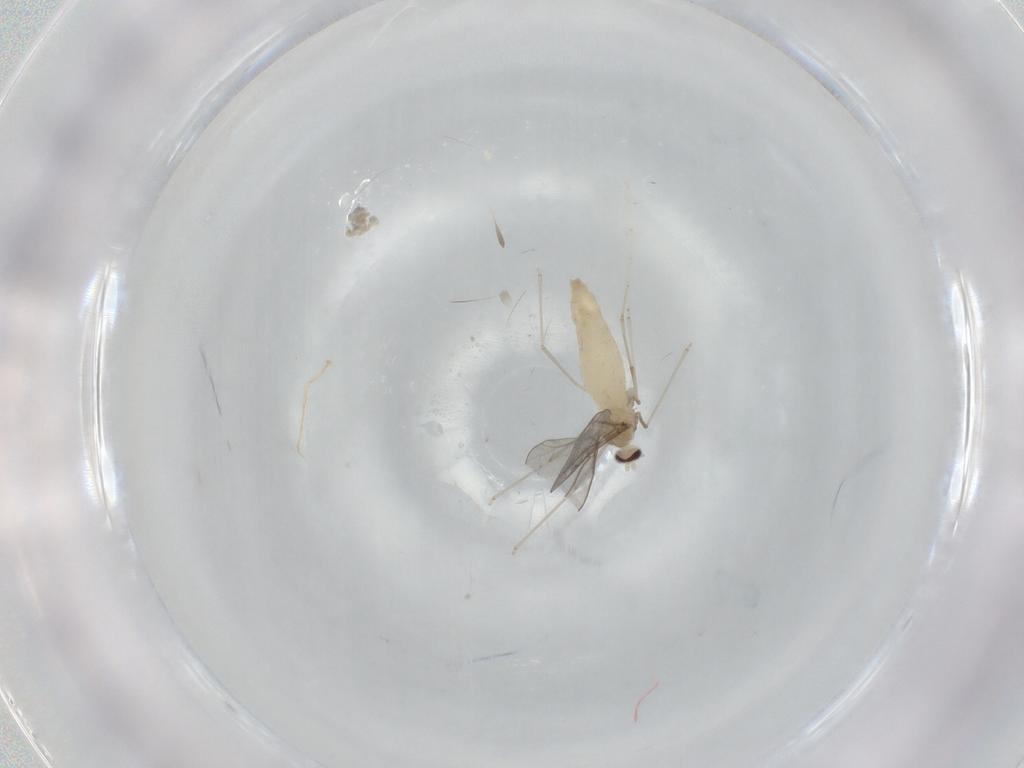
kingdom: Animalia
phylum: Arthropoda
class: Insecta
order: Diptera
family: Cecidomyiidae
